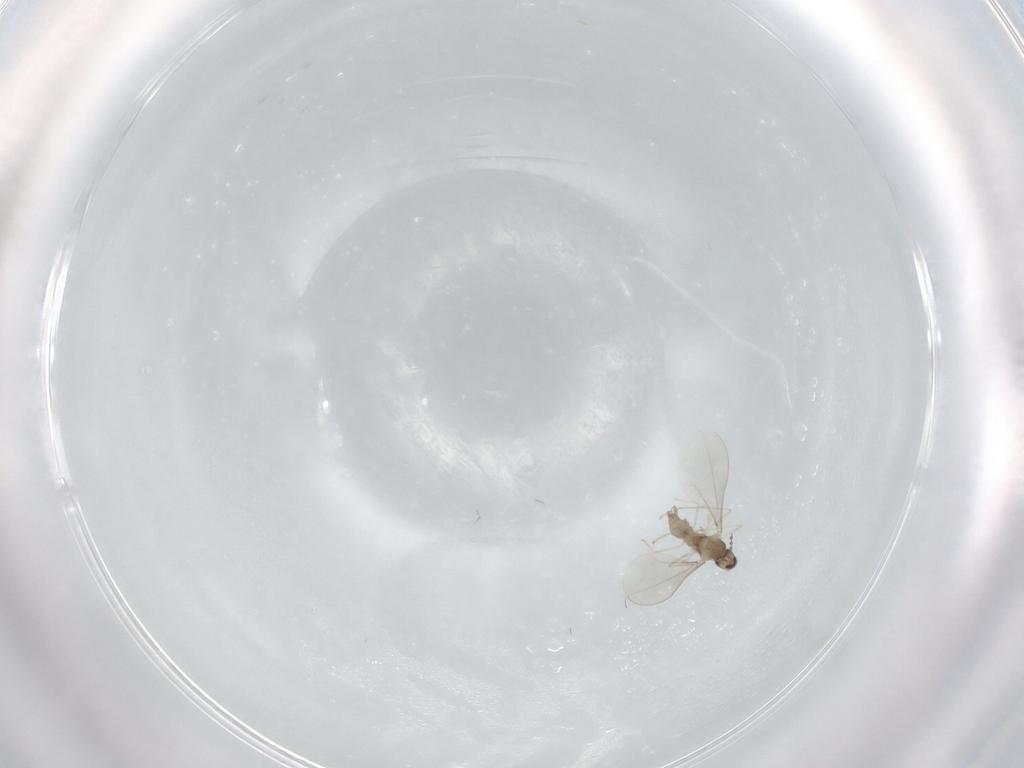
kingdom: Animalia
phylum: Arthropoda
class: Insecta
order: Diptera
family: Cecidomyiidae
